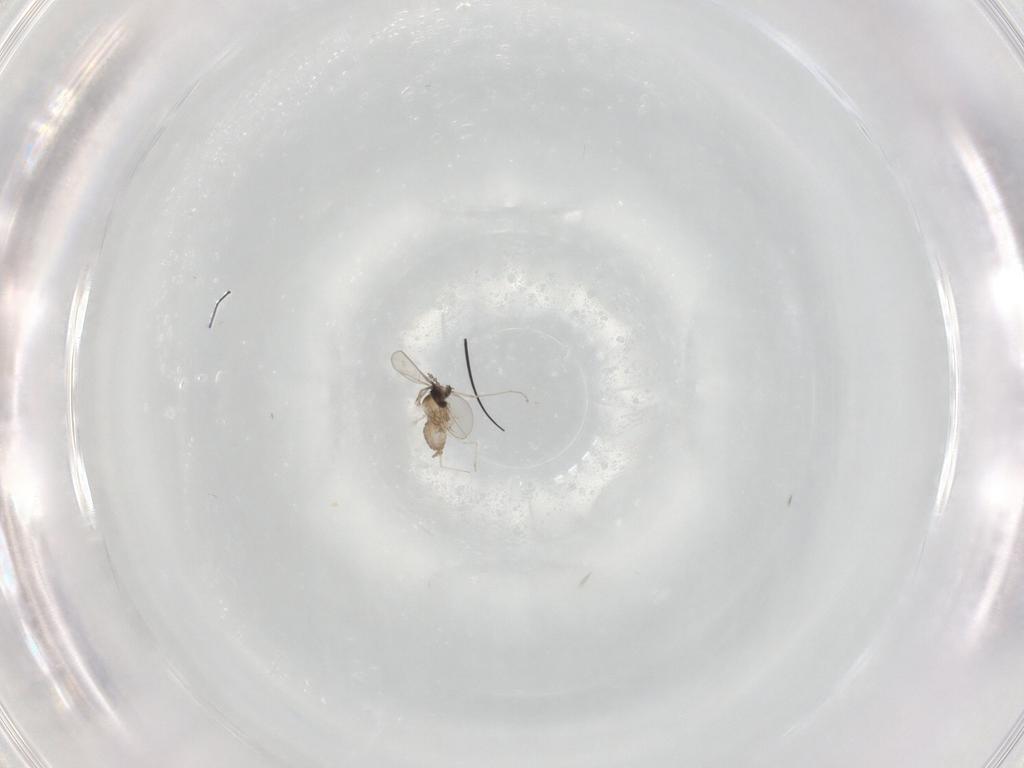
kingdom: Animalia
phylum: Arthropoda
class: Insecta
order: Diptera
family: Cecidomyiidae
